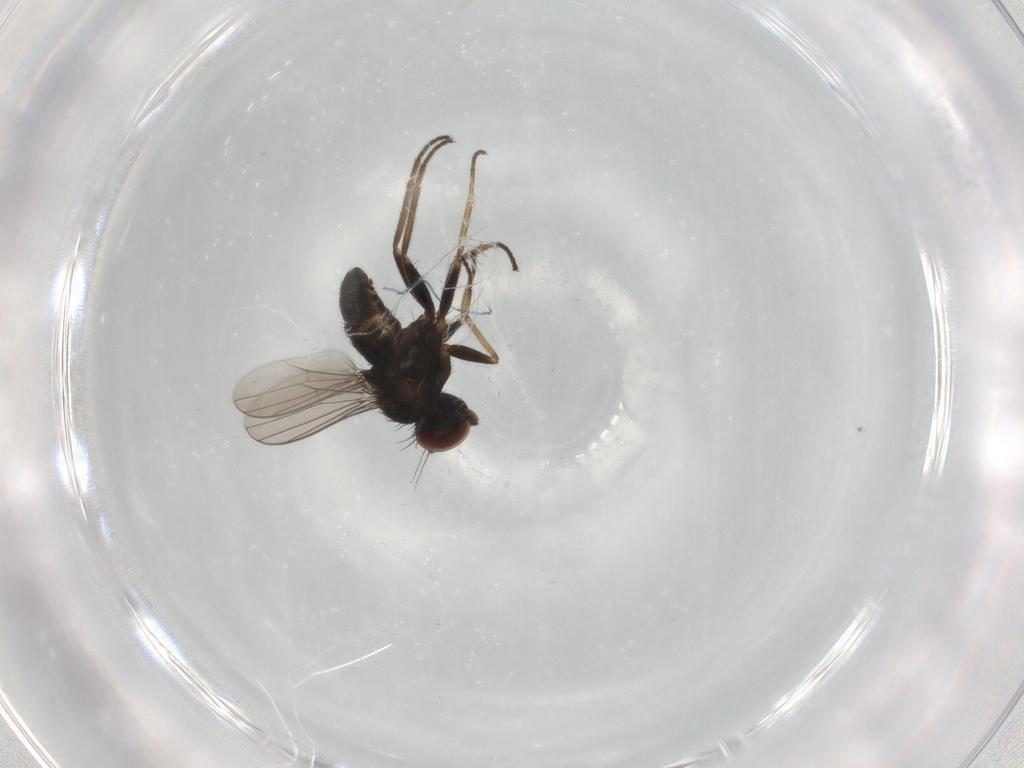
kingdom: Animalia
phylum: Arthropoda
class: Insecta
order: Diptera
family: Dolichopodidae
